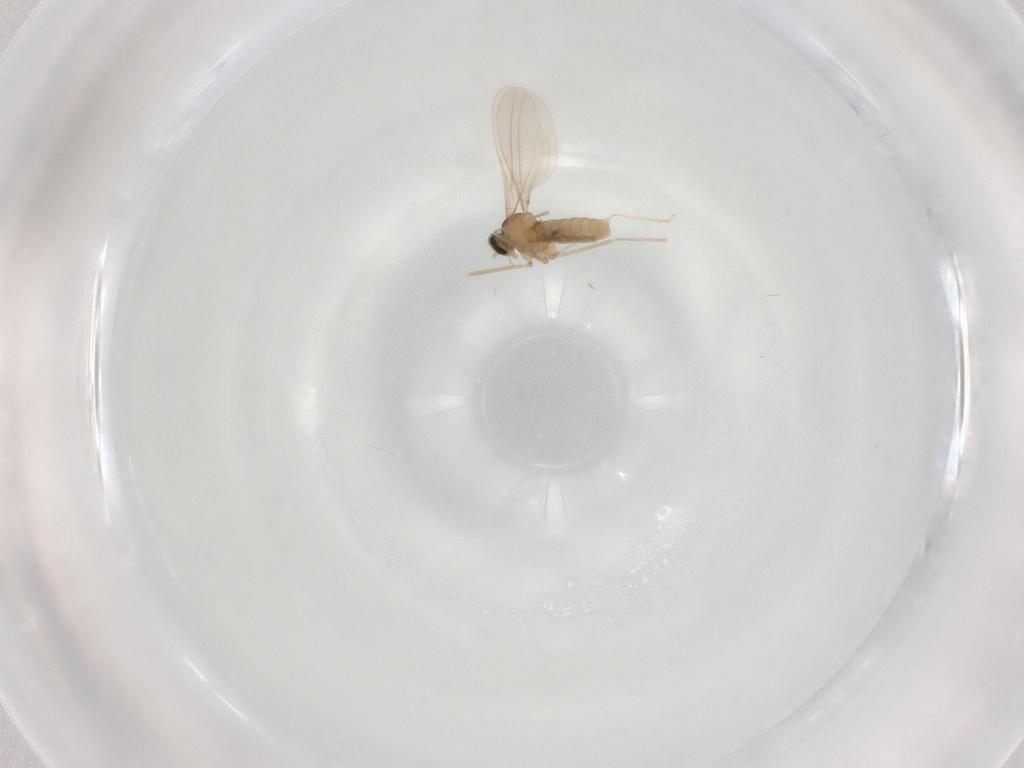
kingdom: Animalia
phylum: Arthropoda
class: Insecta
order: Diptera
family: Cecidomyiidae
